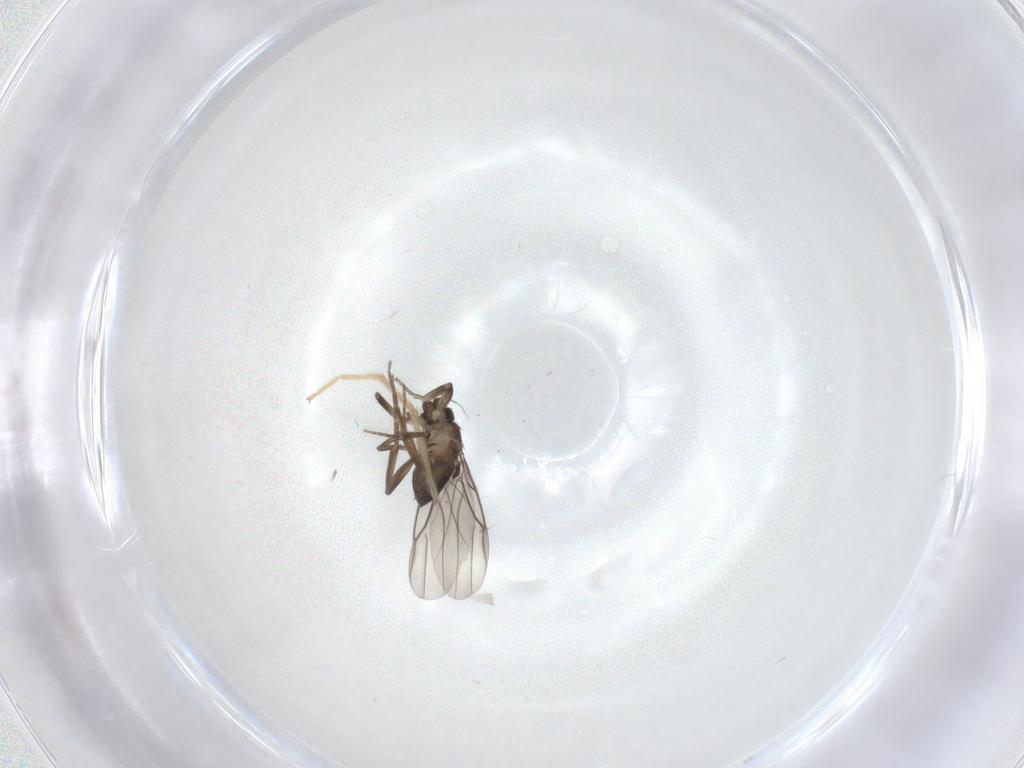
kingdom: Animalia
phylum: Arthropoda
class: Insecta
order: Diptera
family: Phoridae
